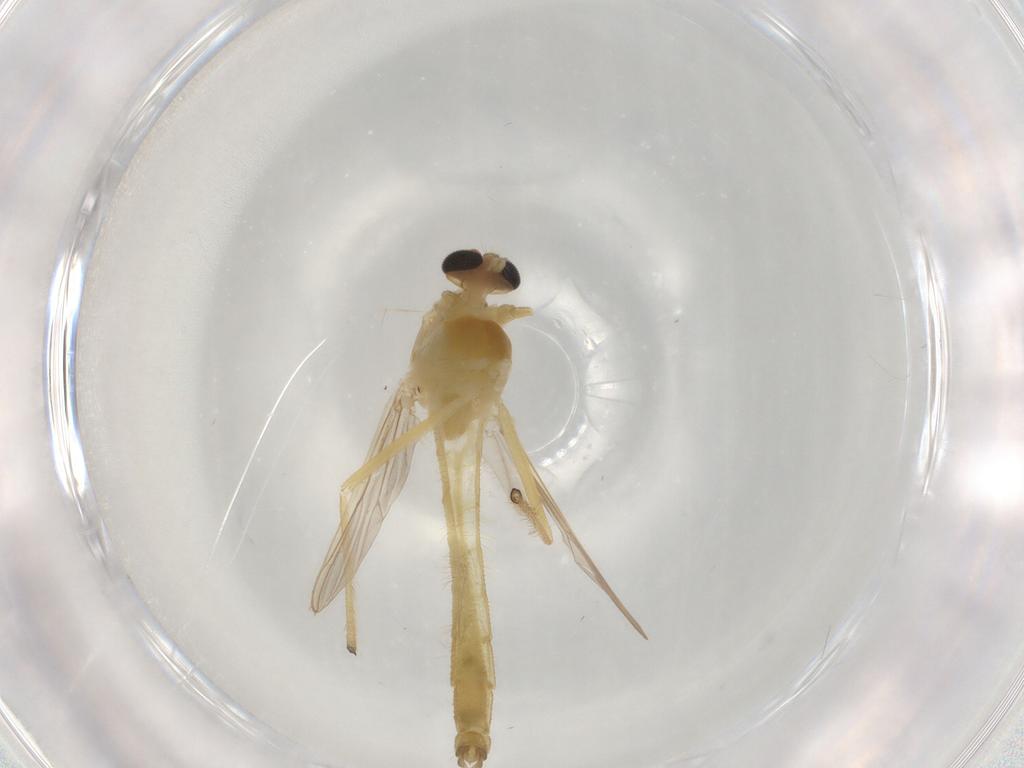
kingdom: Animalia
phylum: Arthropoda
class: Insecta
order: Diptera
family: Chironomidae
